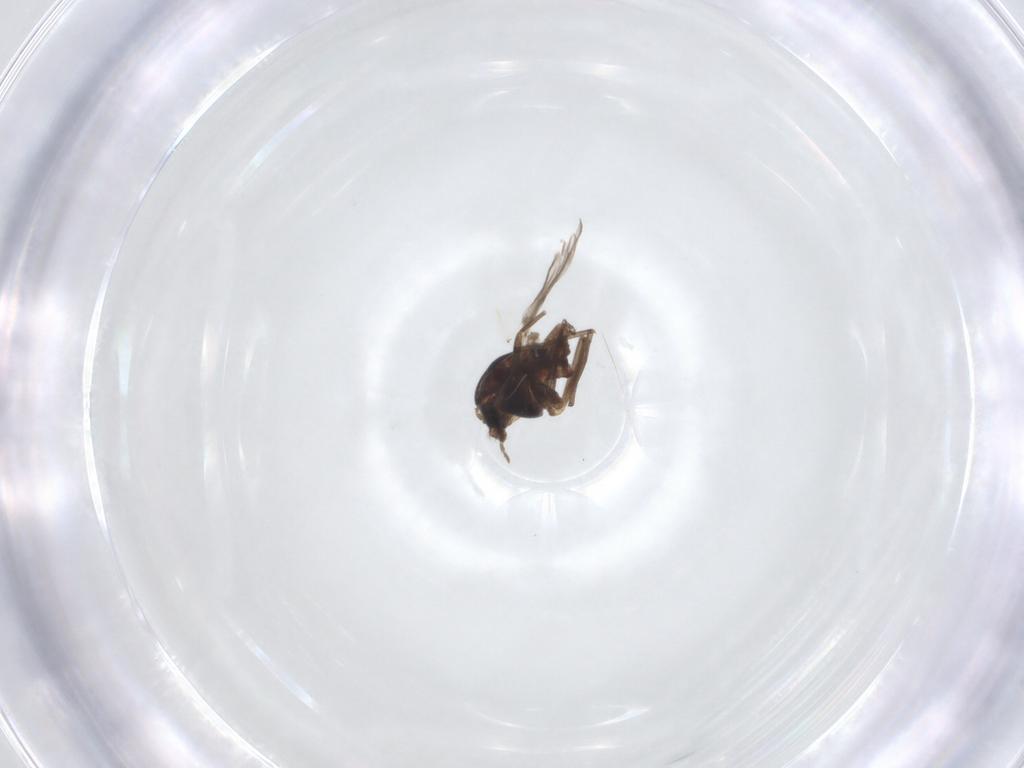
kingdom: Animalia
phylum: Arthropoda
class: Insecta
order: Diptera
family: Chironomidae
